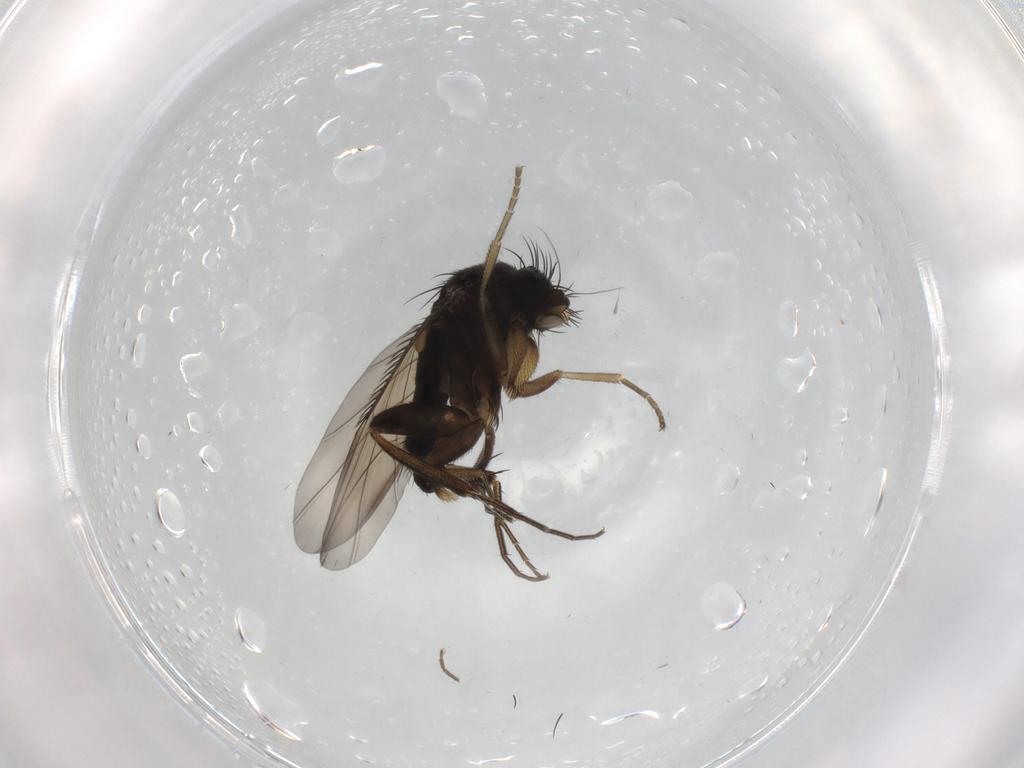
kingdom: Animalia
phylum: Arthropoda
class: Insecta
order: Diptera
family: Phoridae
